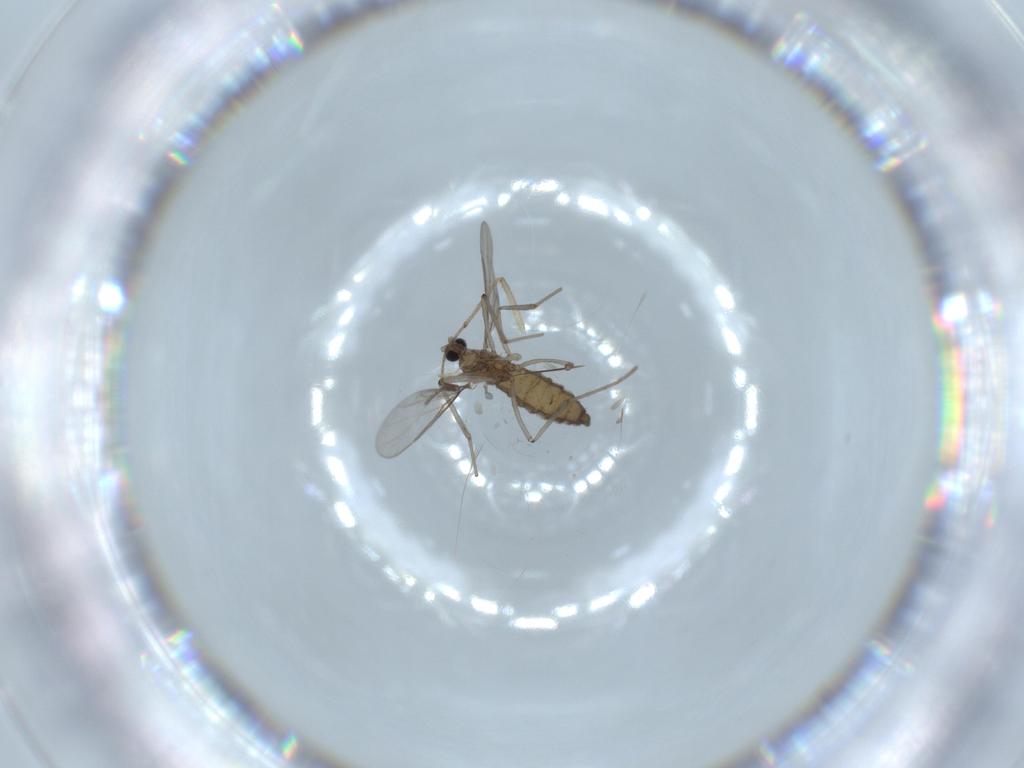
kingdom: Animalia
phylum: Arthropoda
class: Insecta
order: Diptera
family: Cecidomyiidae
